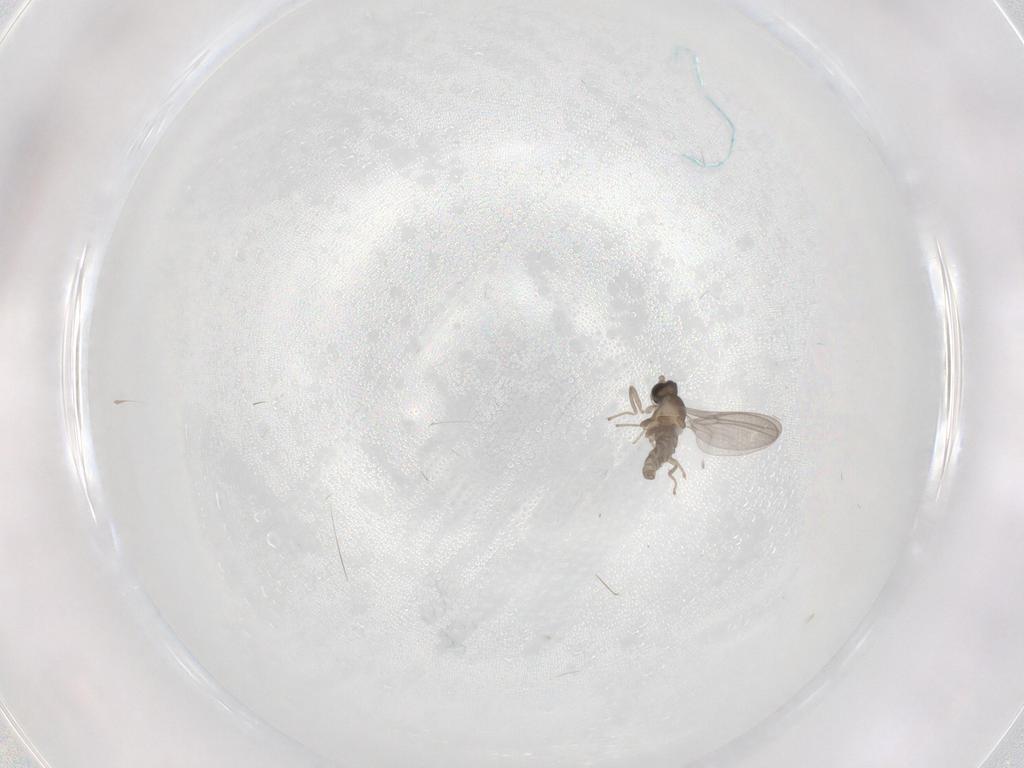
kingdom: Animalia
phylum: Arthropoda
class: Insecta
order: Diptera
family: Cecidomyiidae
